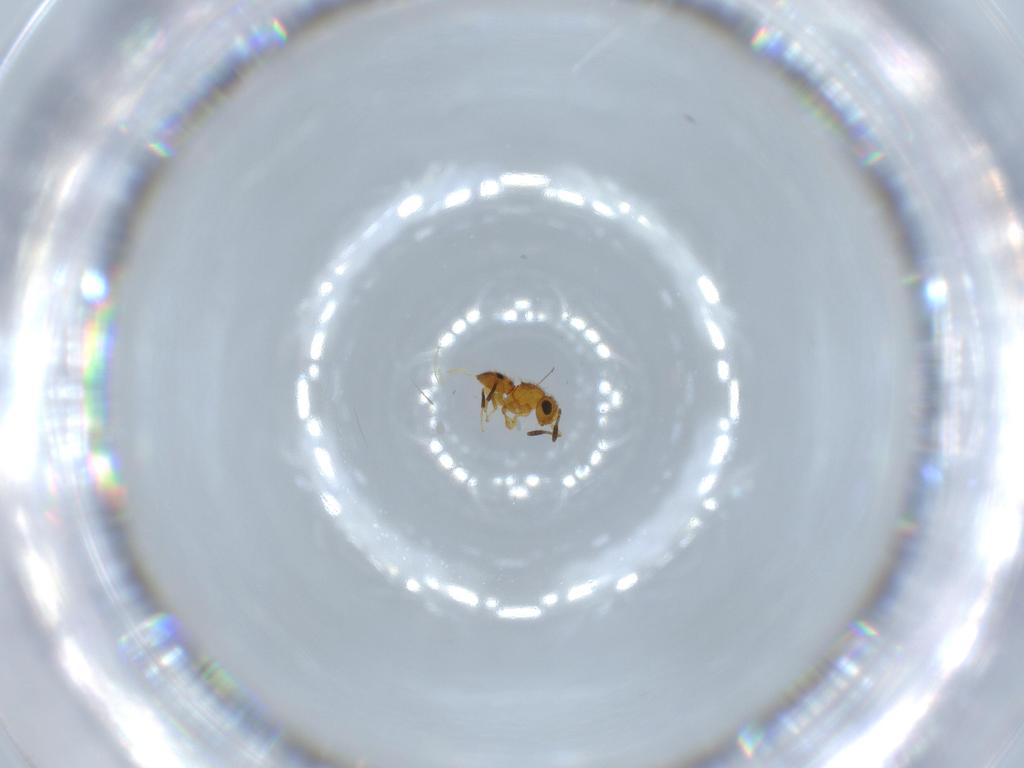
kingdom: Animalia
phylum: Arthropoda
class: Insecta
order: Hymenoptera
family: Scelionidae
